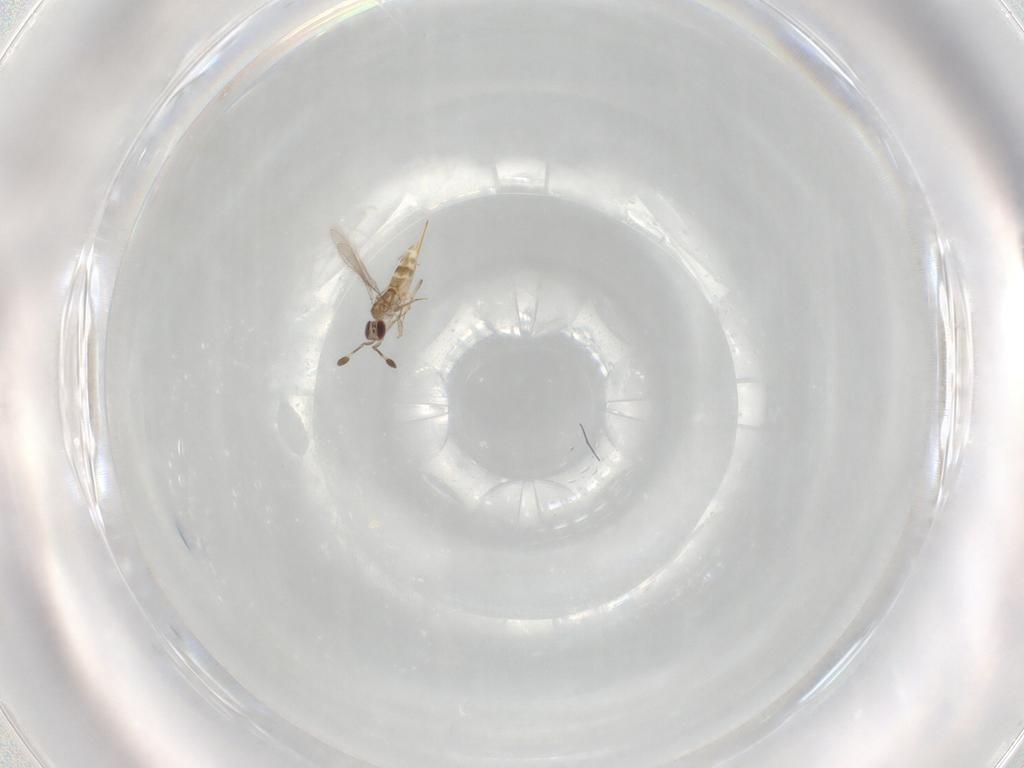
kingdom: Animalia
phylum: Arthropoda
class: Insecta
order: Hymenoptera
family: Mymaridae
